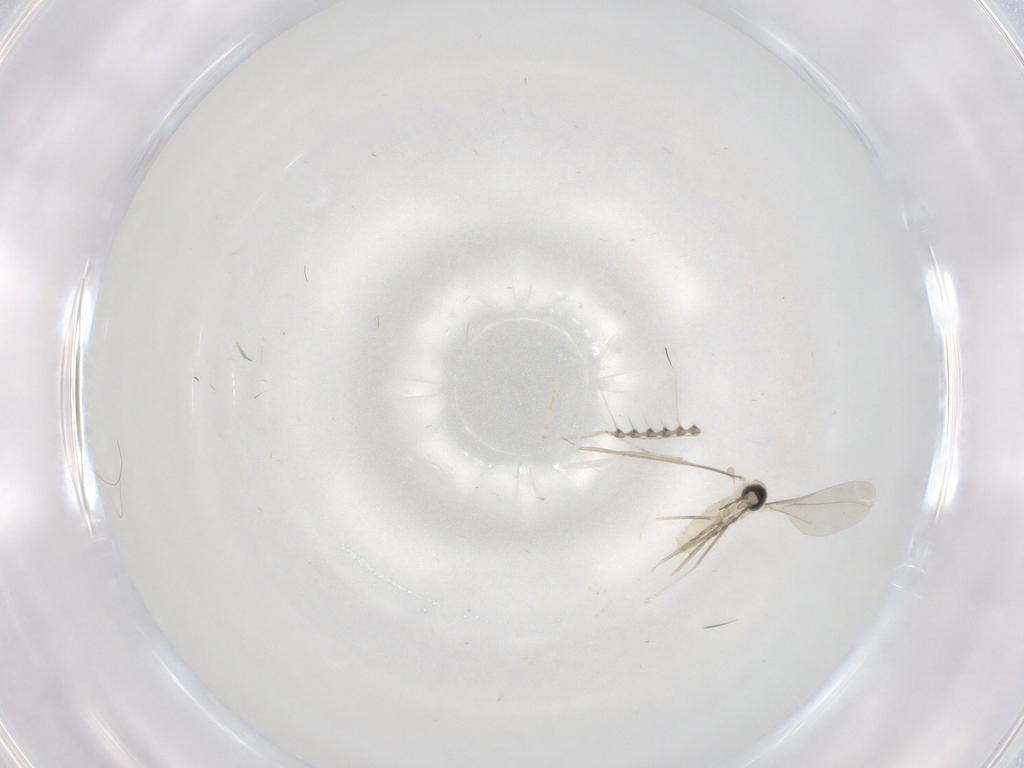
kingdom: Animalia
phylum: Arthropoda
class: Insecta
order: Diptera
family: Cecidomyiidae
